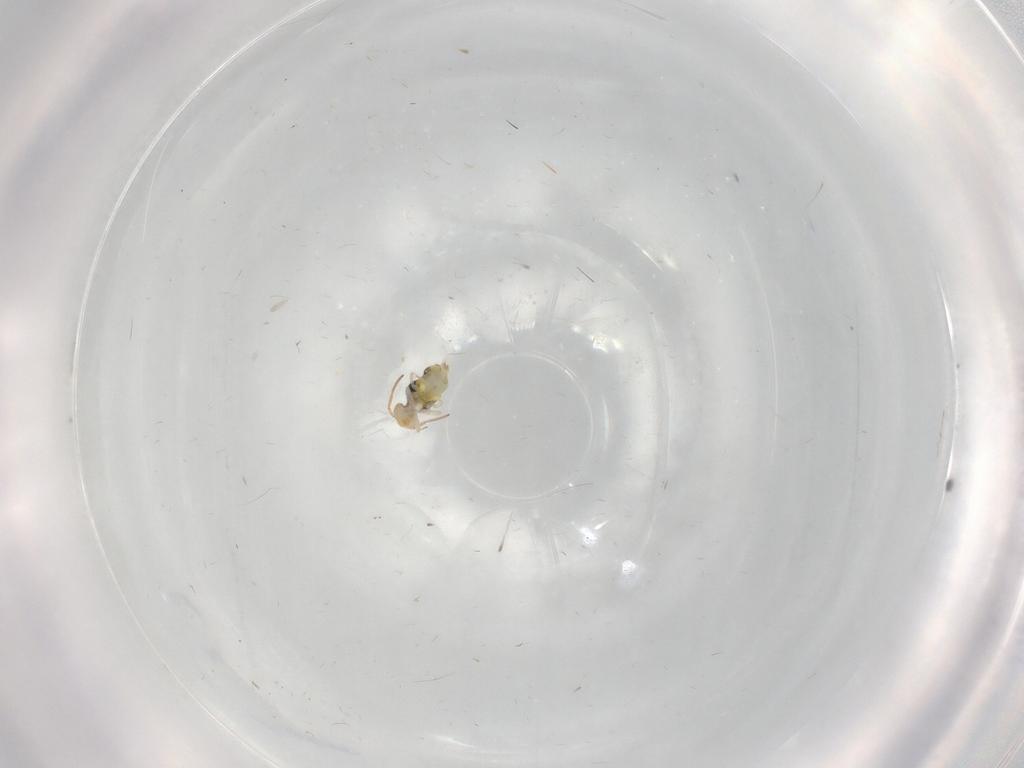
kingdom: Animalia
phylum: Arthropoda
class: Collembola
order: Symphypleona
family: Bourletiellidae
